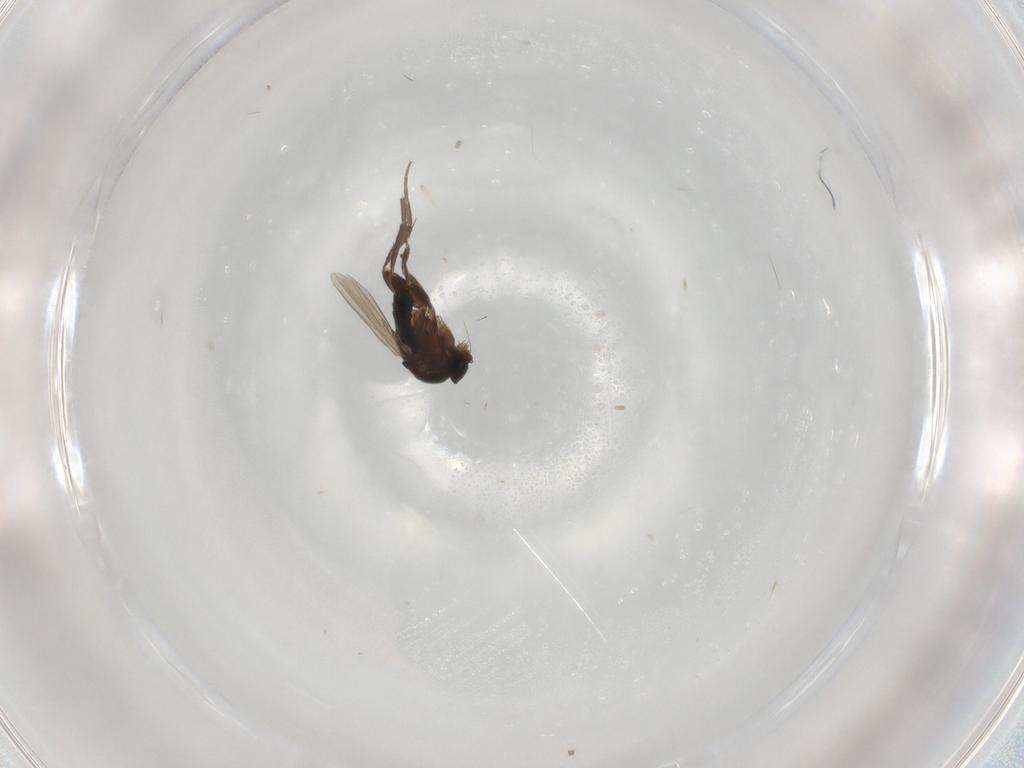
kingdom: Animalia
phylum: Arthropoda
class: Insecta
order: Diptera
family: Phoridae
